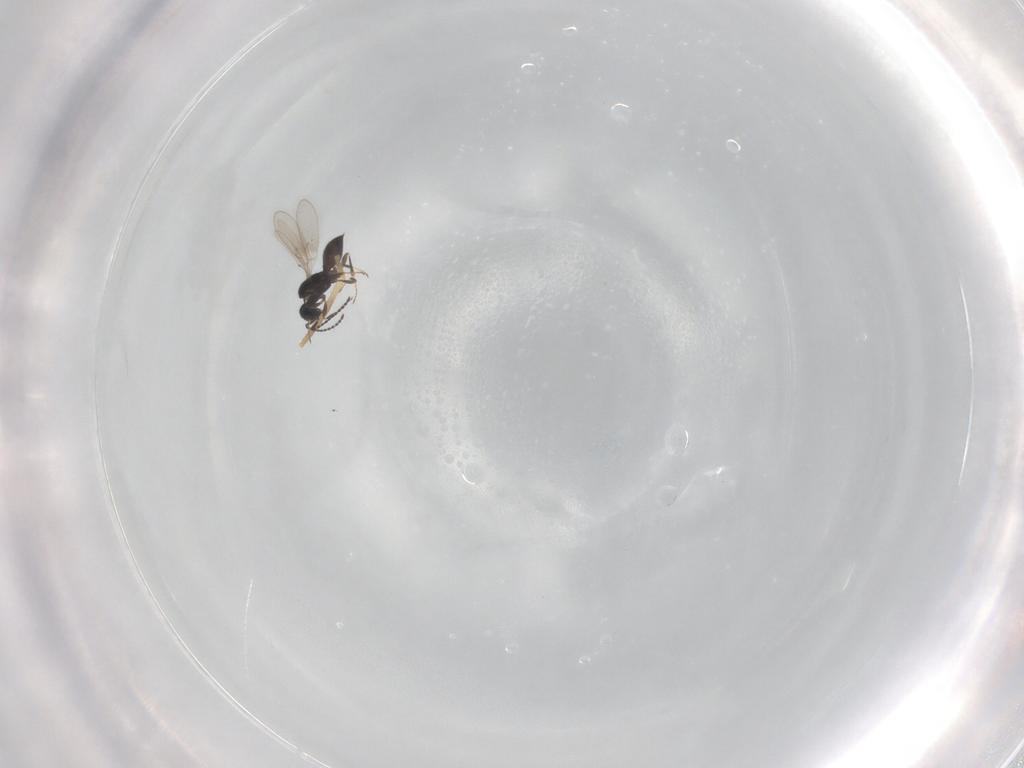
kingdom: Animalia
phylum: Arthropoda
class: Insecta
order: Hymenoptera
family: Scelionidae
